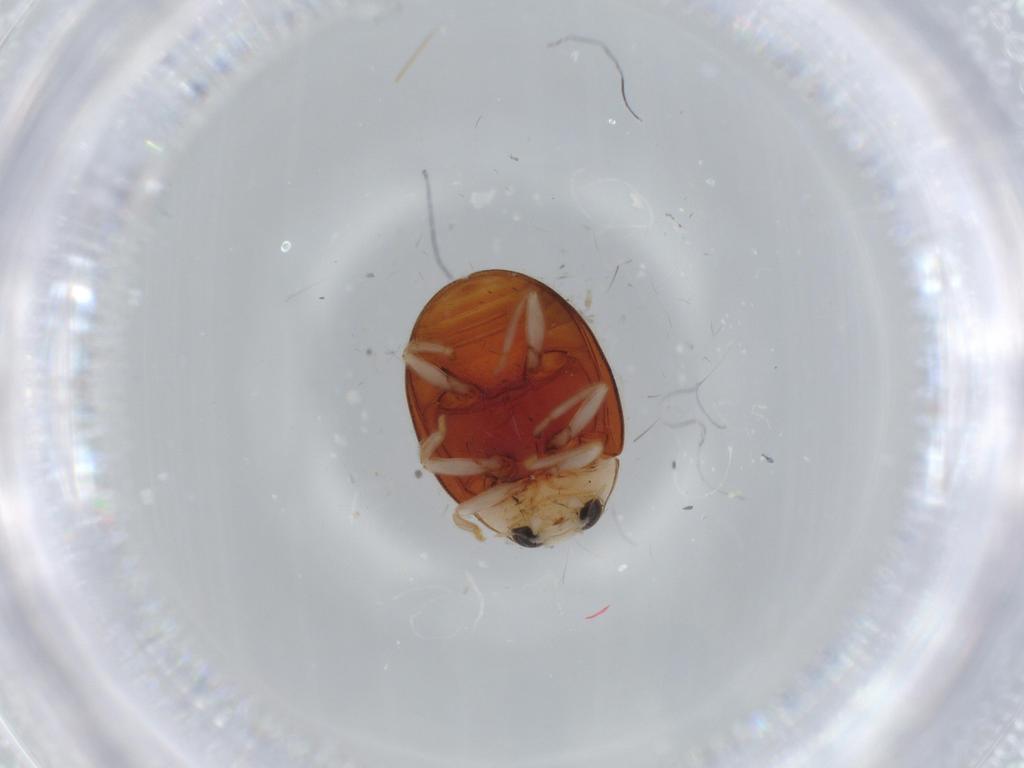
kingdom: Animalia
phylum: Arthropoda
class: Insecta
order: Coleoptera
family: Coccinellidae
